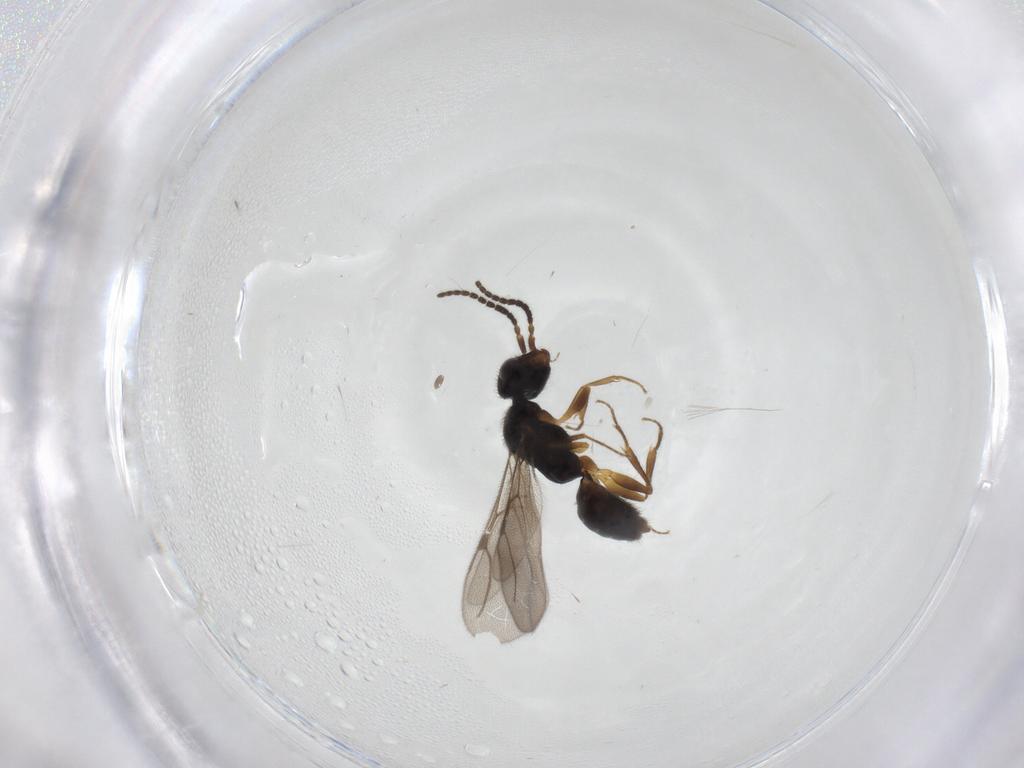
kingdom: Animalia
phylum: Arthropoda
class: Insecta
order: Hymenoptera
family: Bethylidae
